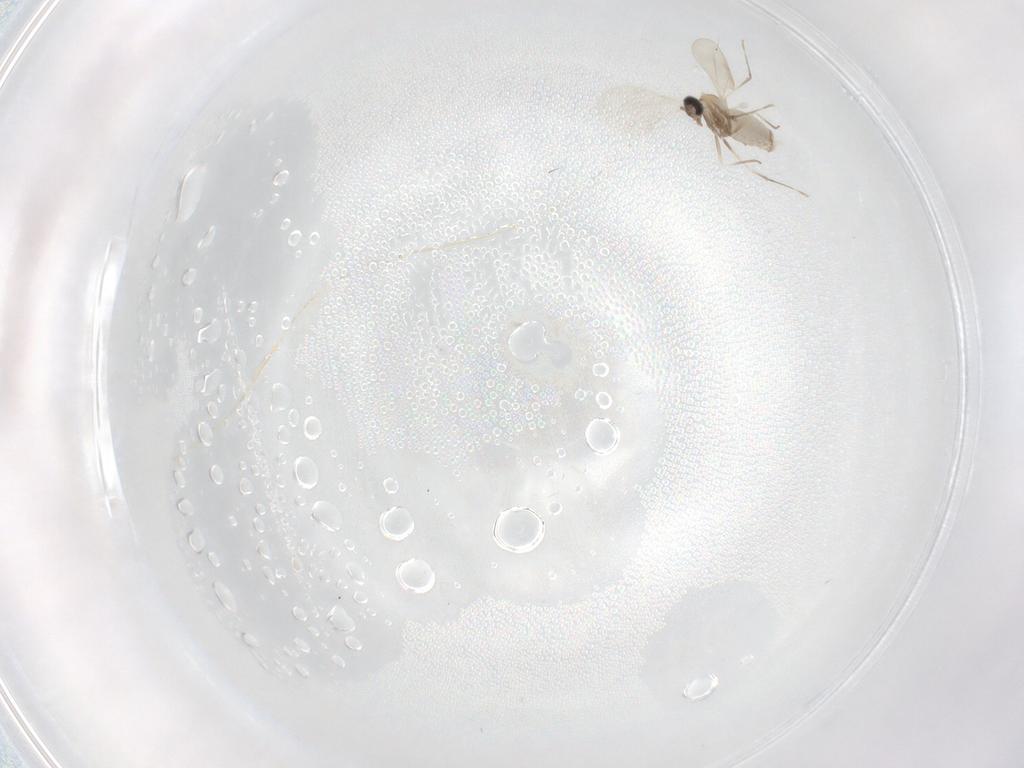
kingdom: Animalia
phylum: Arthropoda
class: Insecta
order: Diptera
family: Cecidomyiidae
